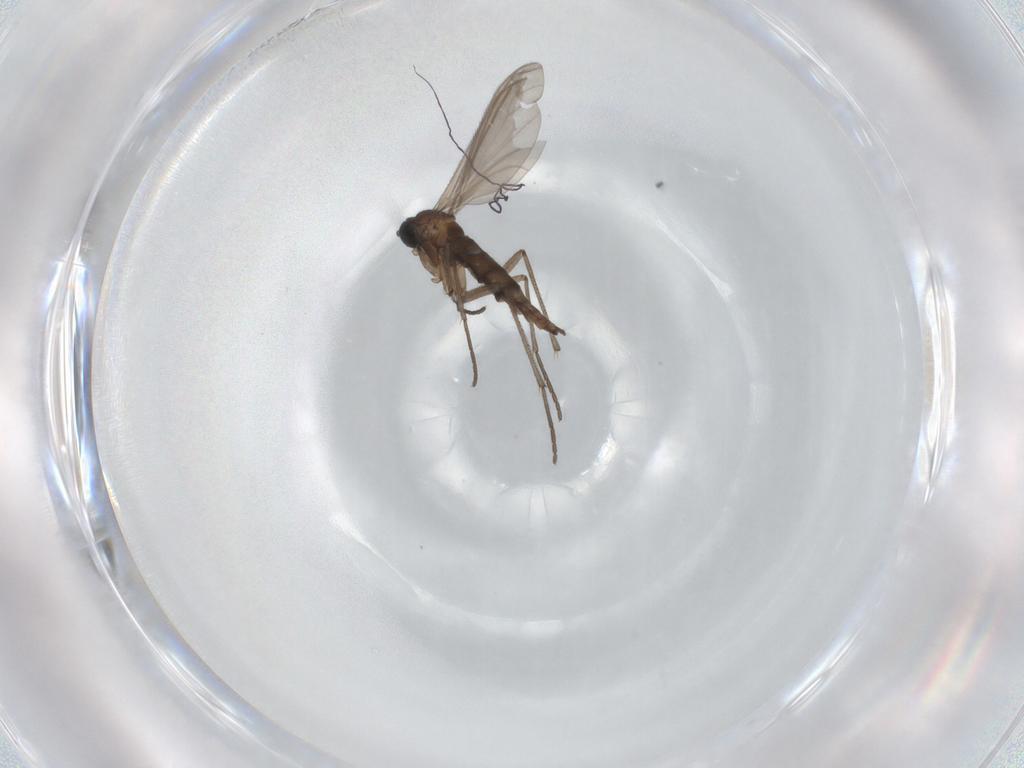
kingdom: Animalia
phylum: Arthropoda
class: Insecta
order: Diptera
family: Sciaridae
